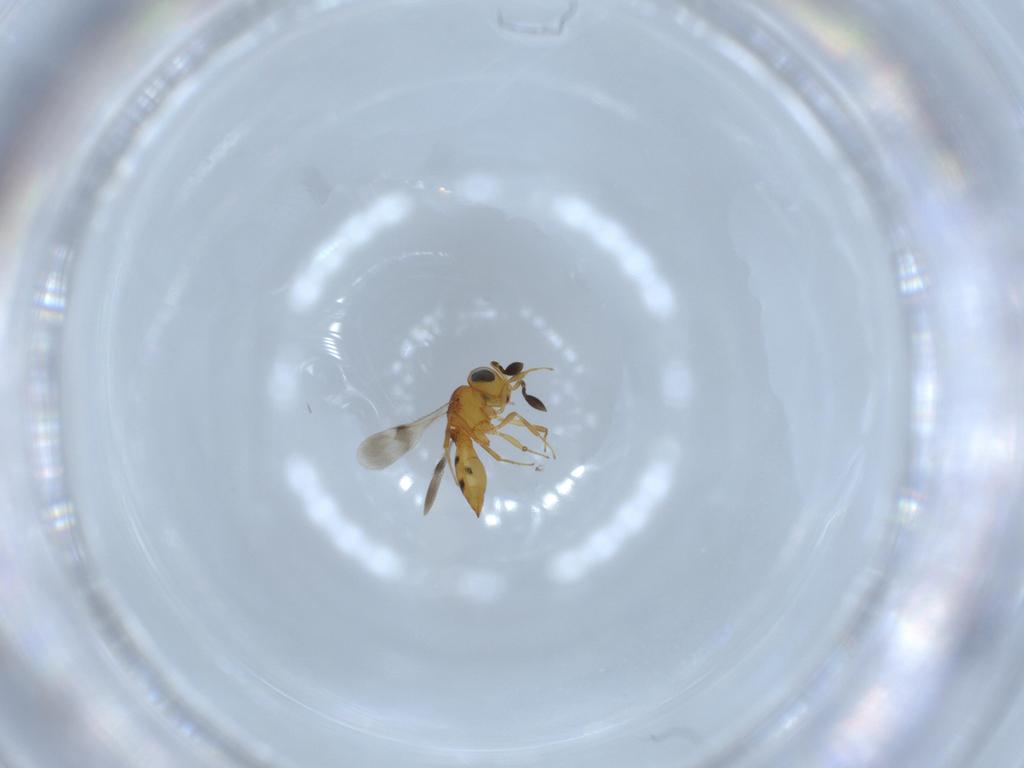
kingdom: Animalia
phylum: Arthropoda
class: Insecta
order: Hymenoptera
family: Scelionidae
